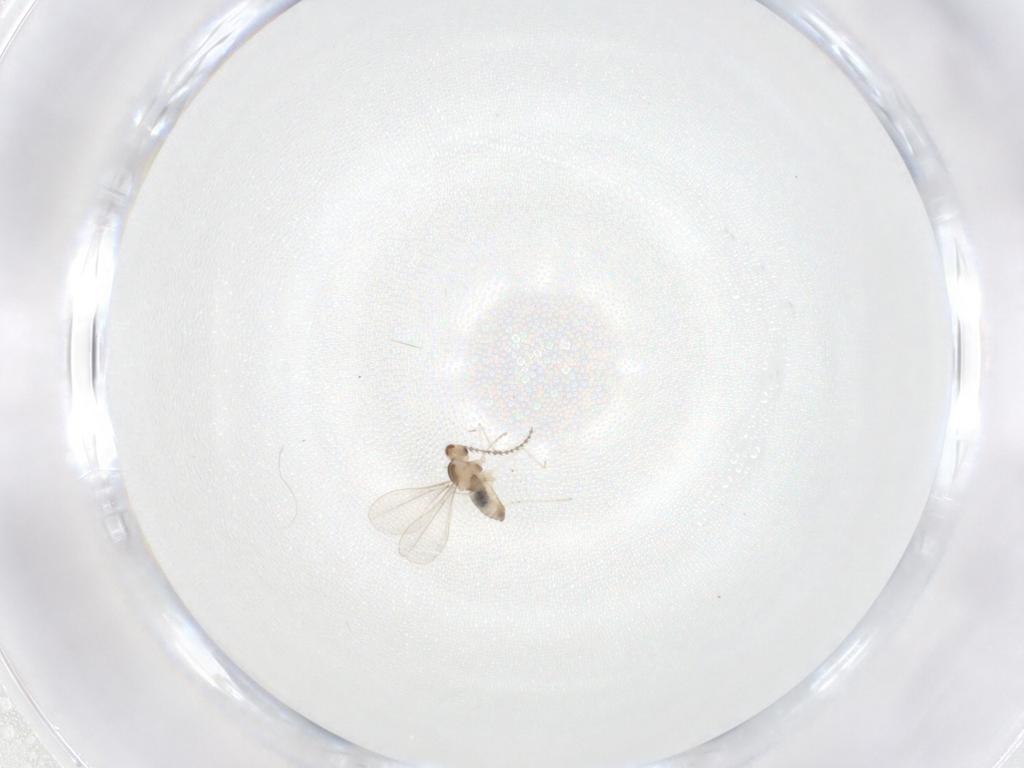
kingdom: Animalia
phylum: Arthropoda
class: Insecta
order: Diptera
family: Cecidomyiidae
